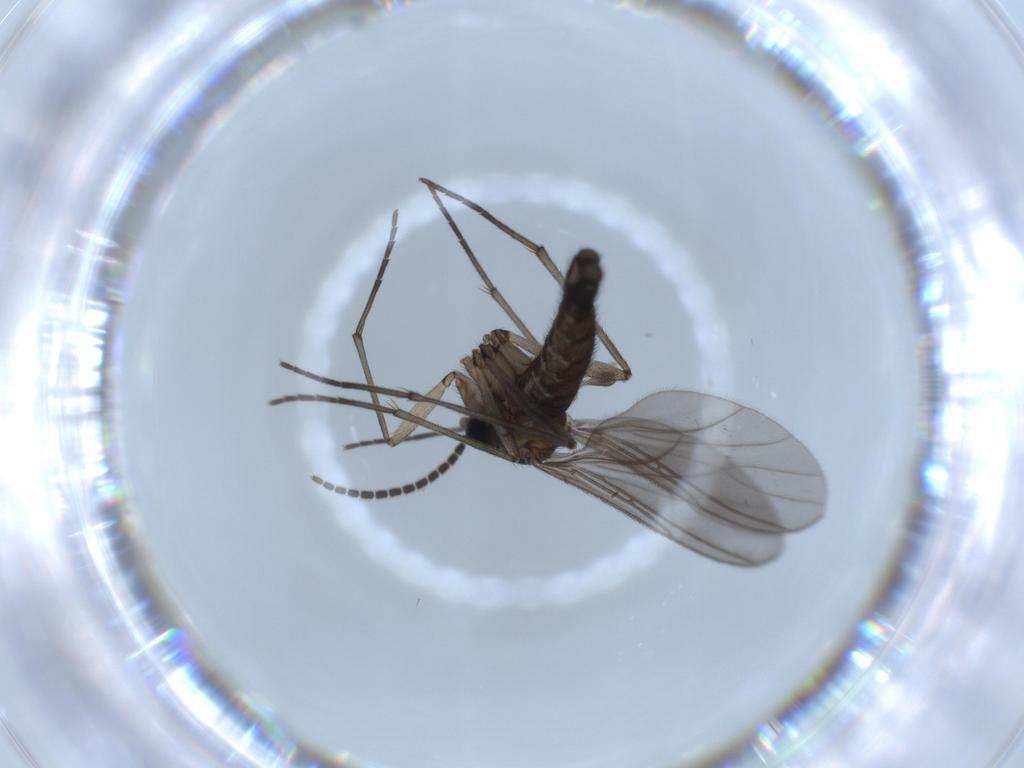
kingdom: Animalia
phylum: Arthropoda
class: Insecta
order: Diptera
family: Sciaridae
